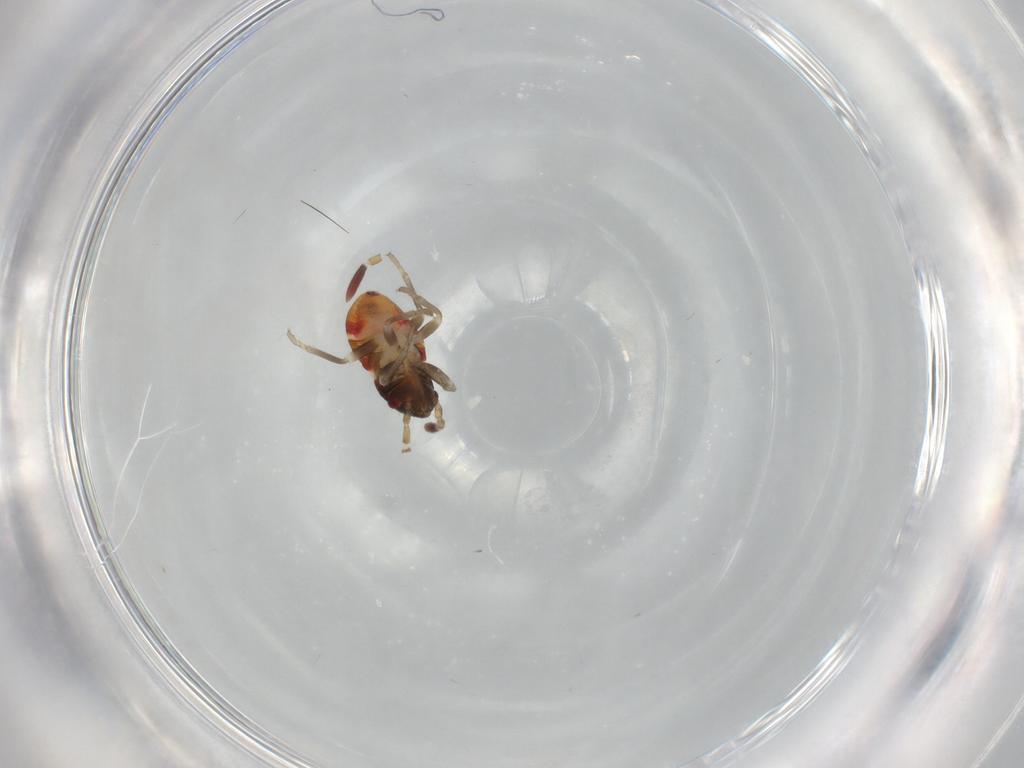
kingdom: Animalia
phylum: Arthropoda
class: Insecta
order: Hemiptera
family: Rhyparochromidae
